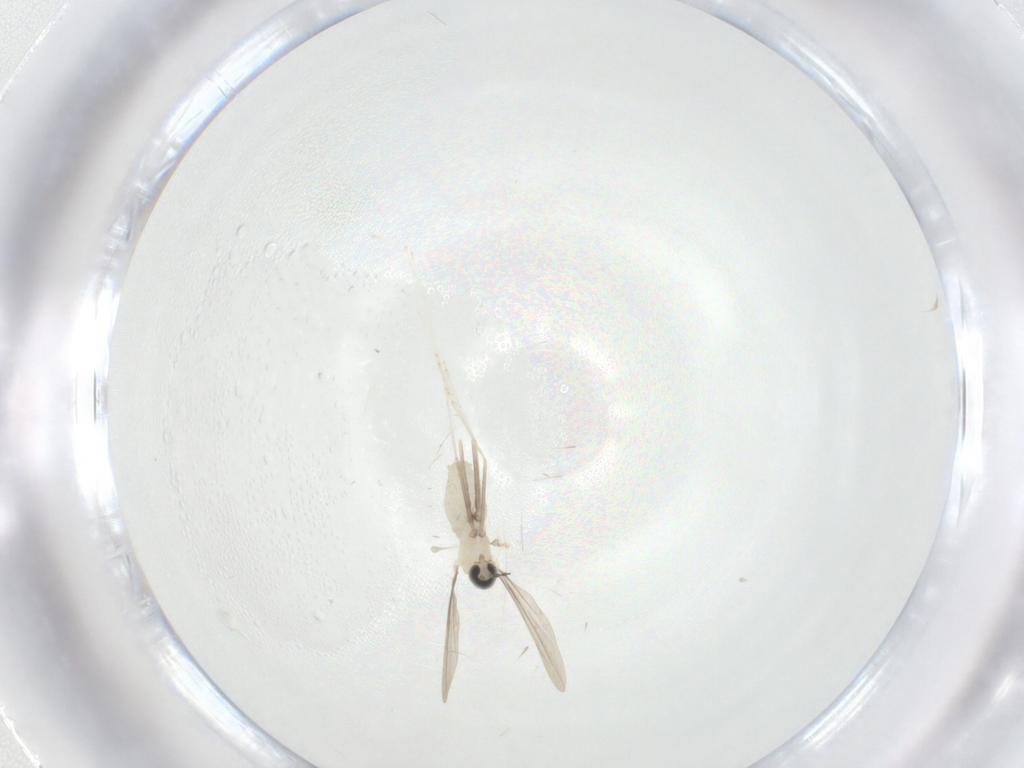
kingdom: Animalia
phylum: Arthropoda
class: Insecta
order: Diptera
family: Cecidomyiidae
